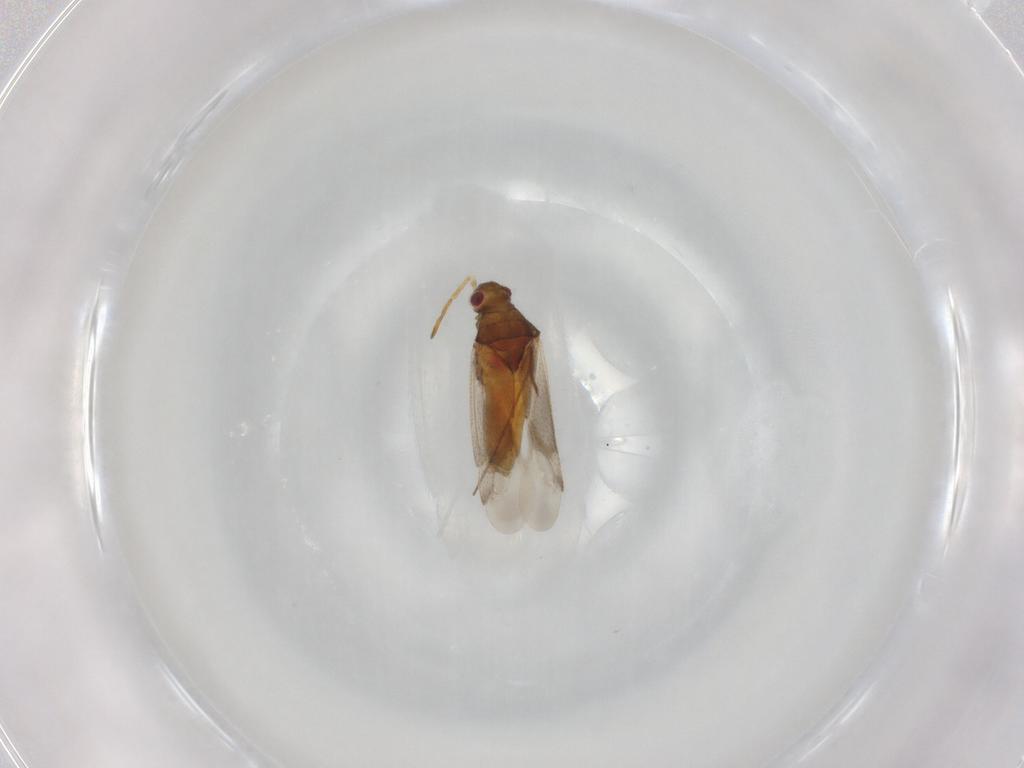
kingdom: Animalia
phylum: Arthropoda
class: Insecta
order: Hemiptera
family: Miridae
